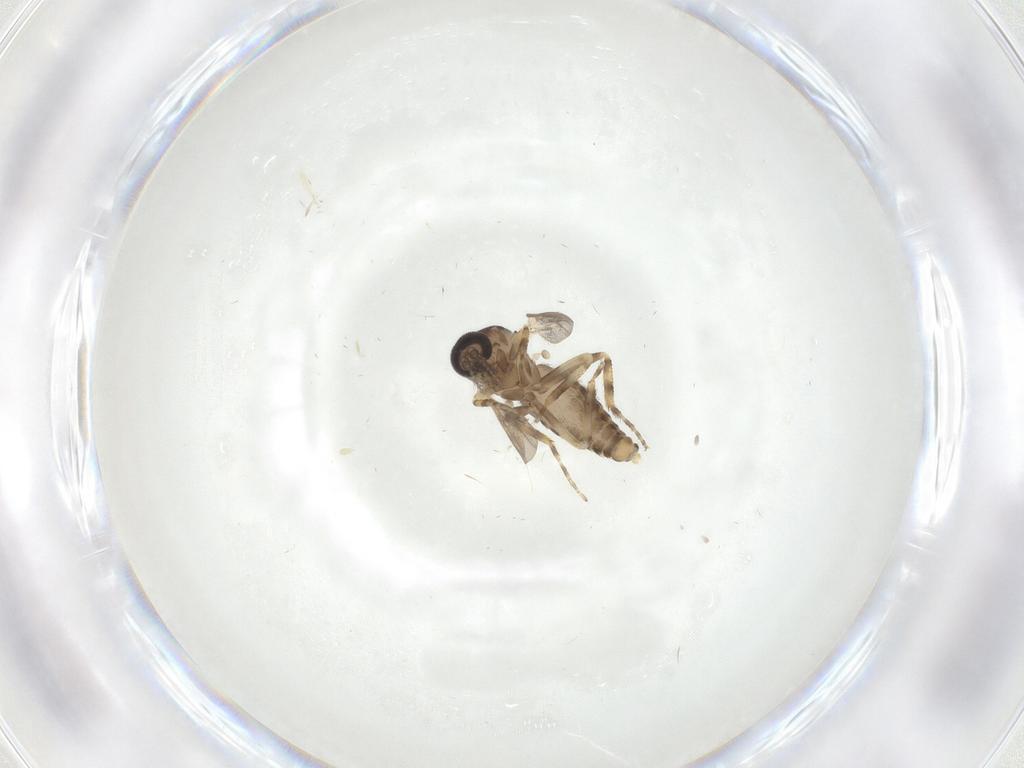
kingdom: Animalia
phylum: Arthropoda
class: Insecta
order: Diptera
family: Ceratopogonidae
